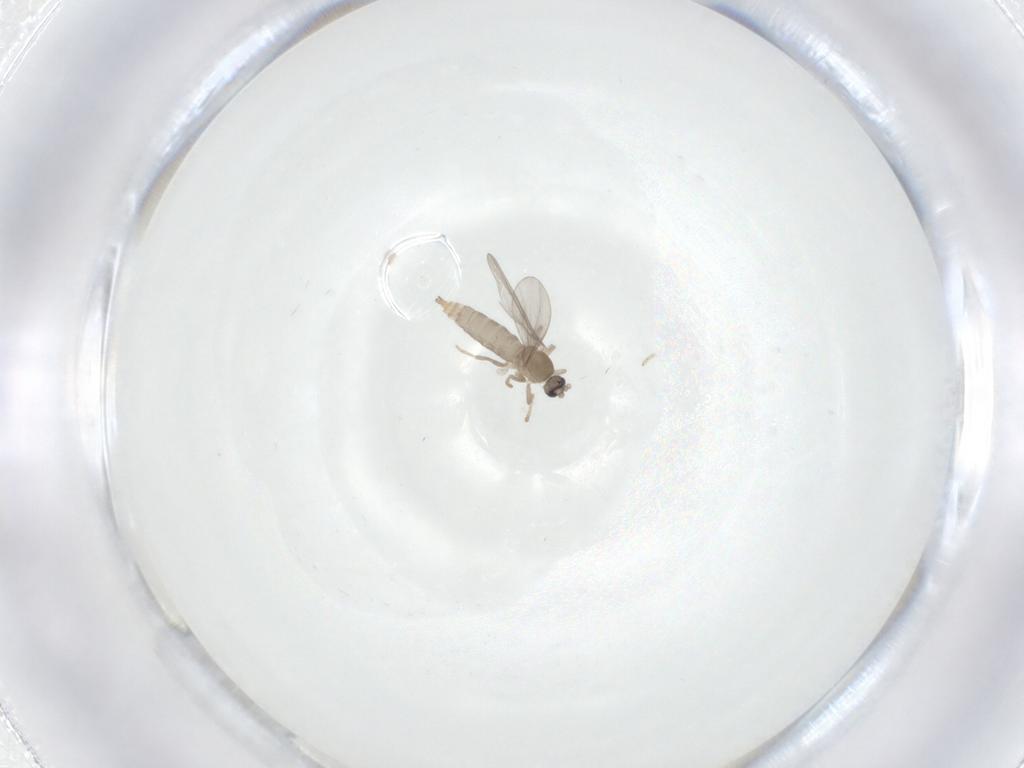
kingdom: Animalia
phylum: Arthropoda
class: Insecta
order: Diptera
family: Cecidomyiidae
